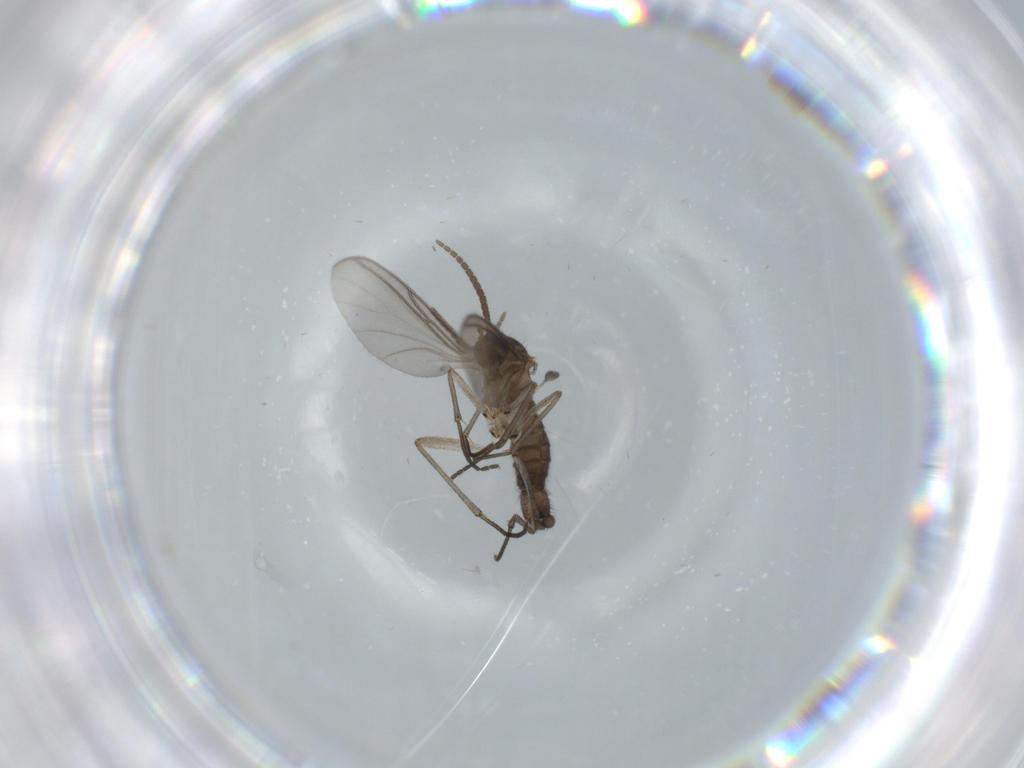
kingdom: Animalia
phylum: Arthropoda
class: Insecta
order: Diptera
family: Sciaridae
